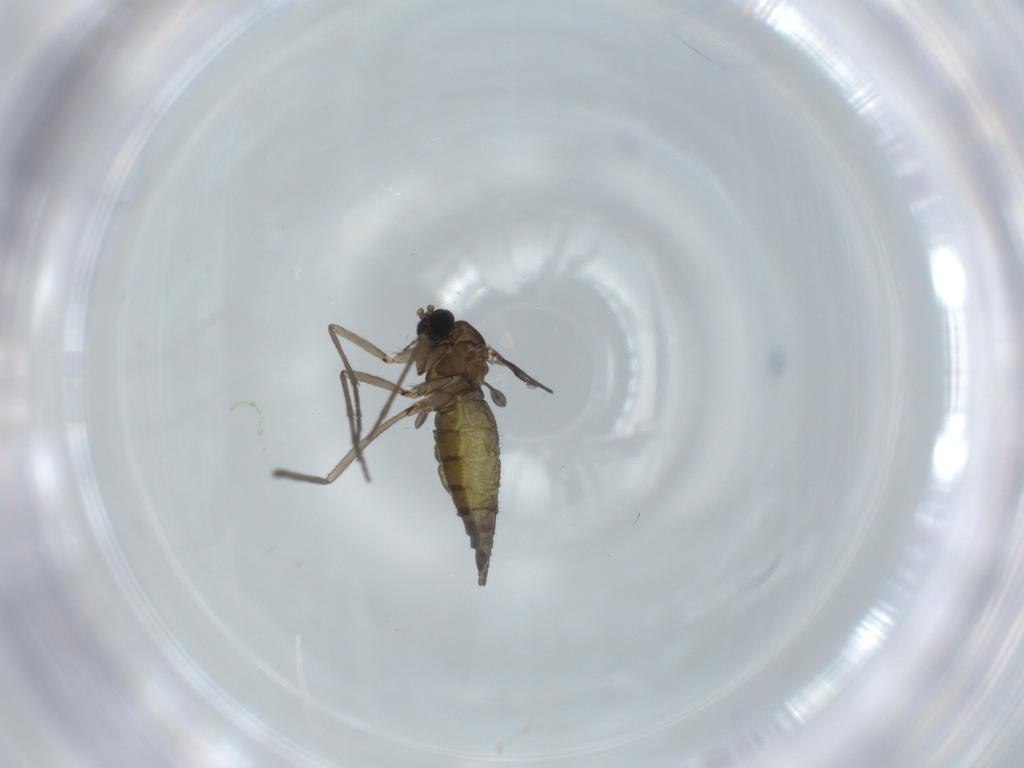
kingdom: Animalia
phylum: Arthropoda
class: Insecta
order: Diptera
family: Sciaridae
